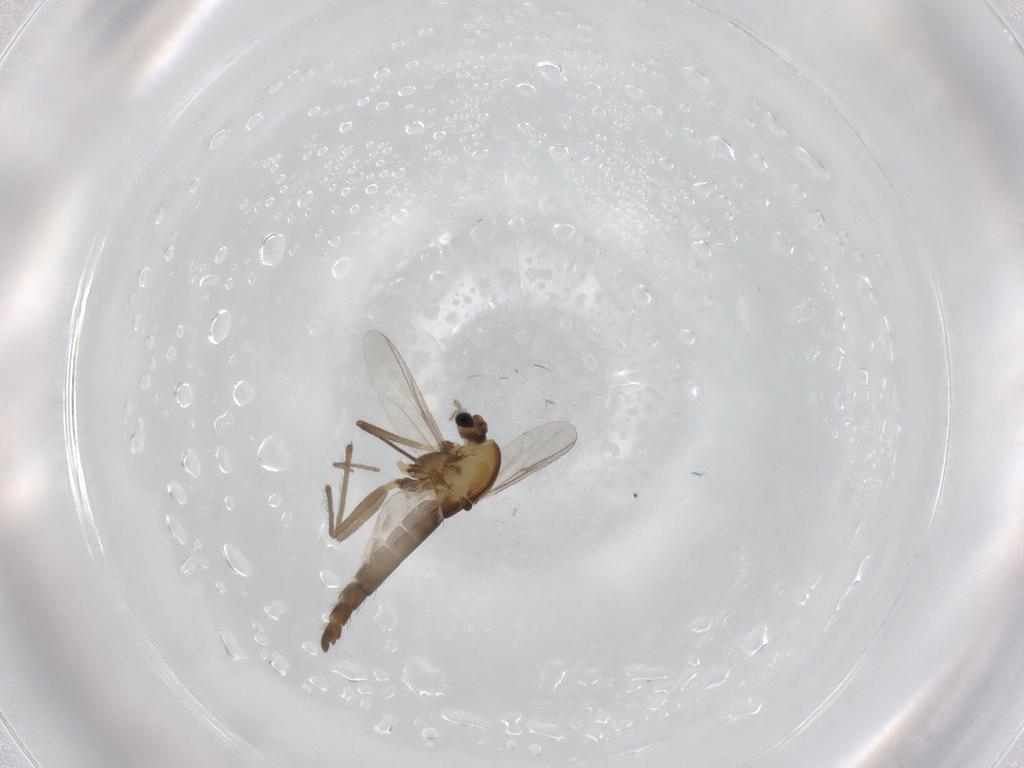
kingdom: Animalia
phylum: Arthropoda
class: Insecta
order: Diptera
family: Chironomidae
